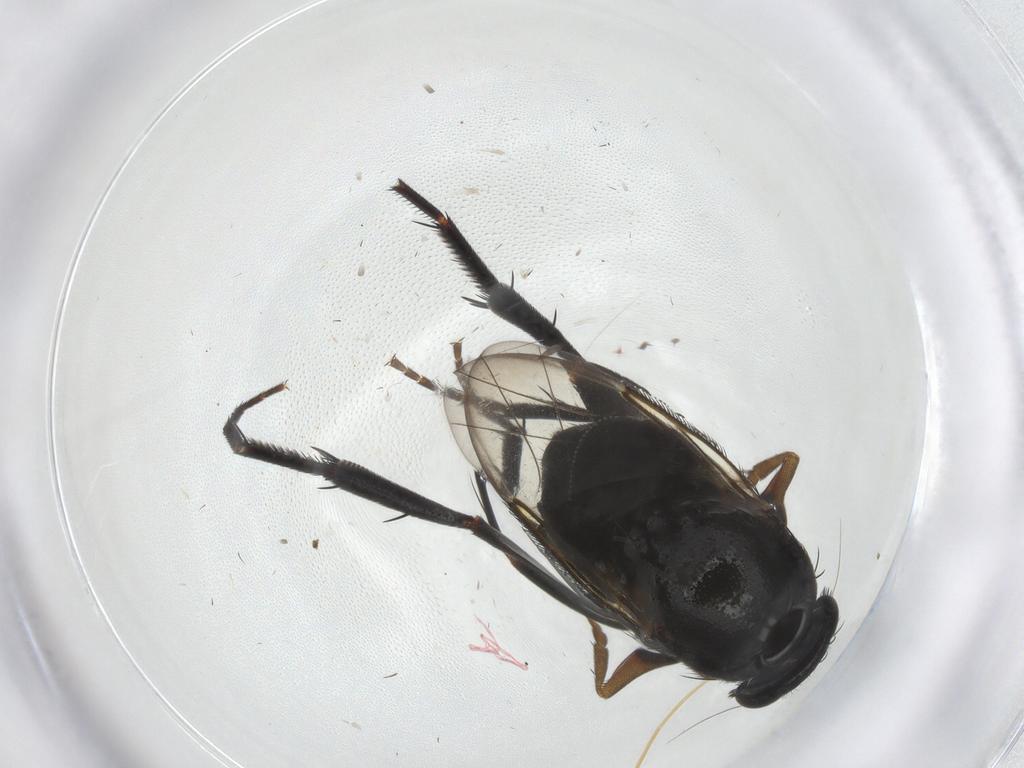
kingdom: Animalia
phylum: Arthropoda
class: Insecta
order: Diptera
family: Phoridae
